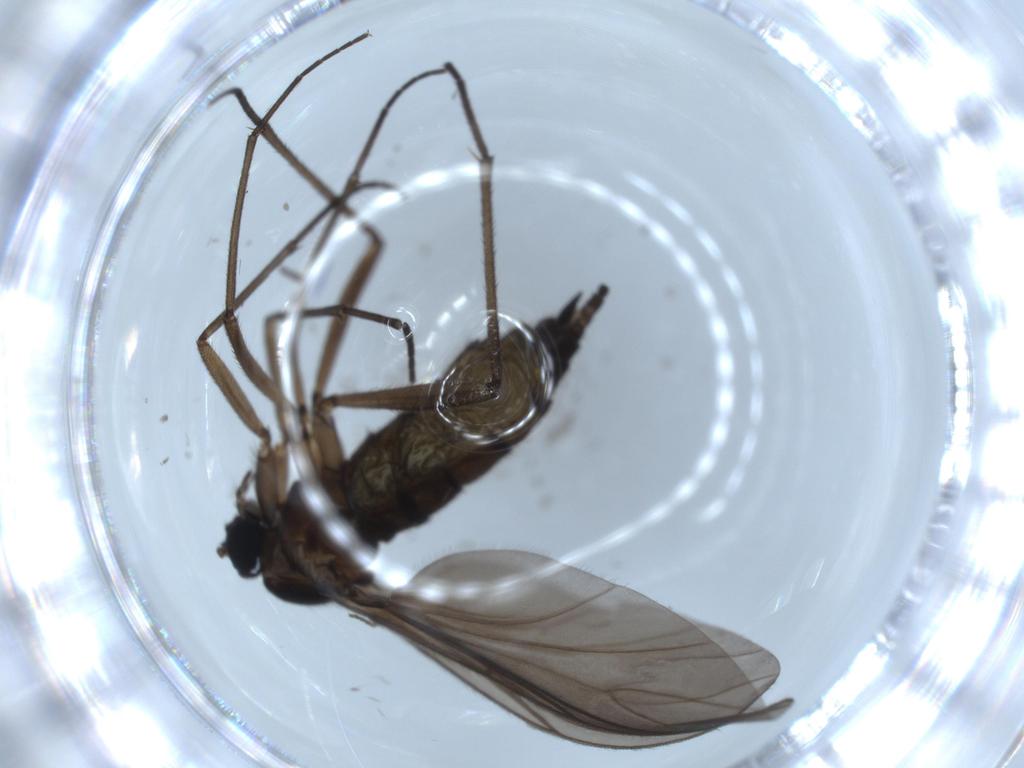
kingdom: Animalia
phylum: Arthropoda
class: Insecta
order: Diptera
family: Sciaridae
